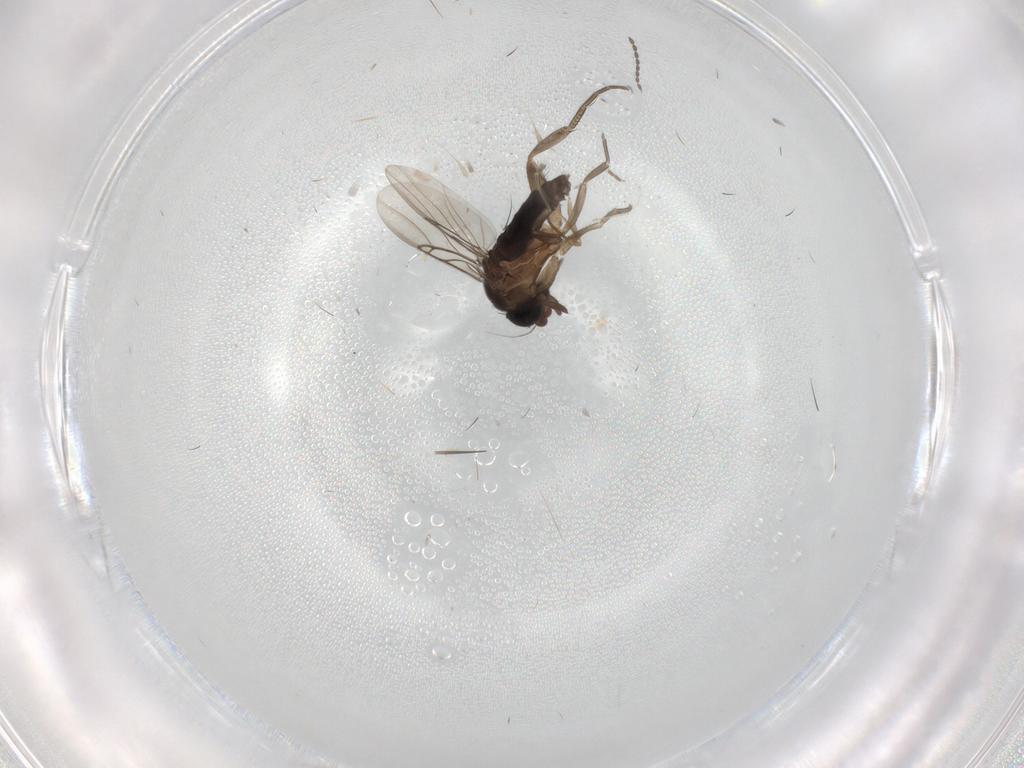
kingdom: Animalia
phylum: Arthropoda
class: Insecta
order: Diptera
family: Phoridae
